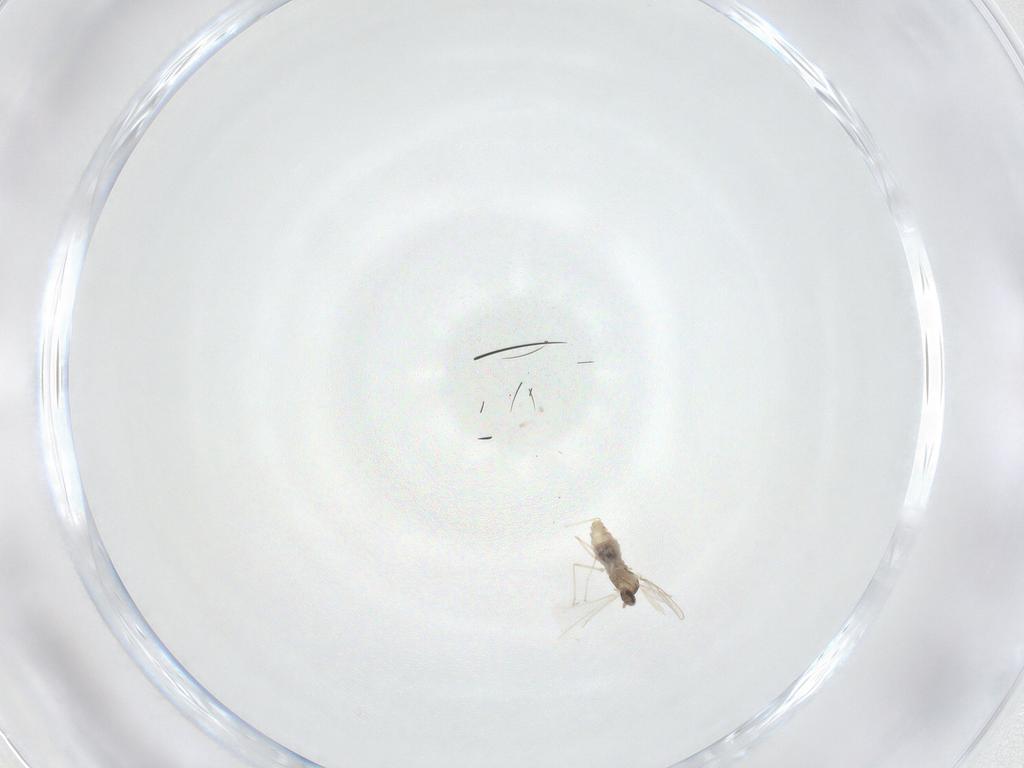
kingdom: Animalia
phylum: Arthropoda
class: Insecta
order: Diptera
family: Cecidomyiidae
